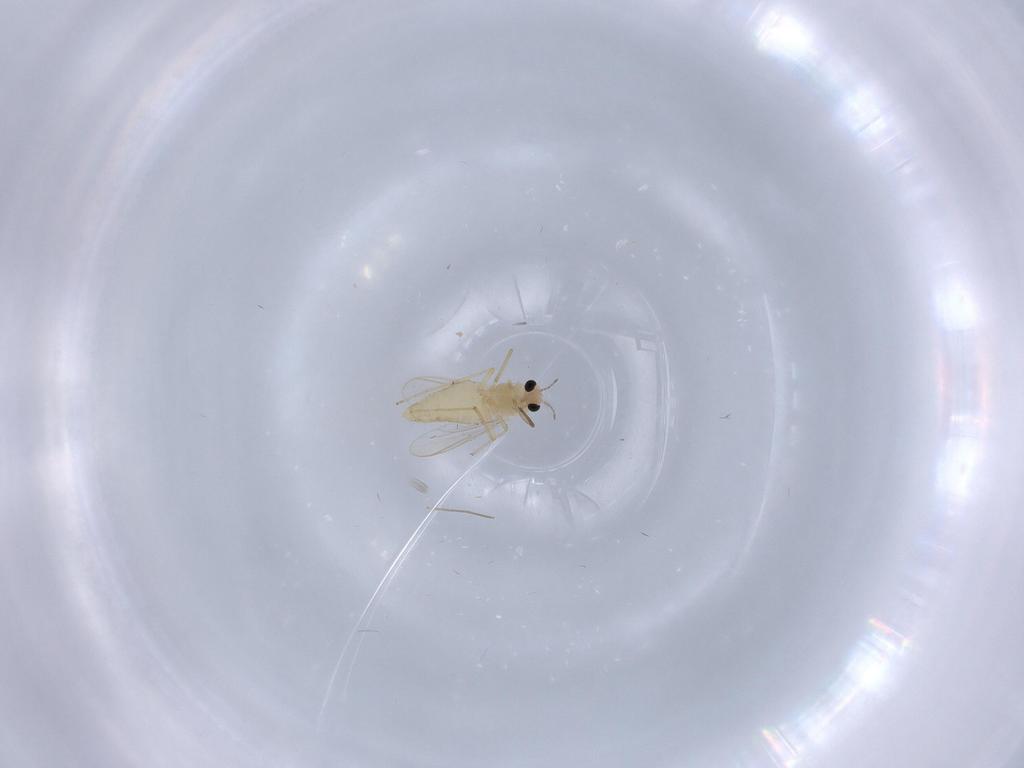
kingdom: Animalia
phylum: Arthropoda
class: Insecta
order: Diptera
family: Chironomidae
